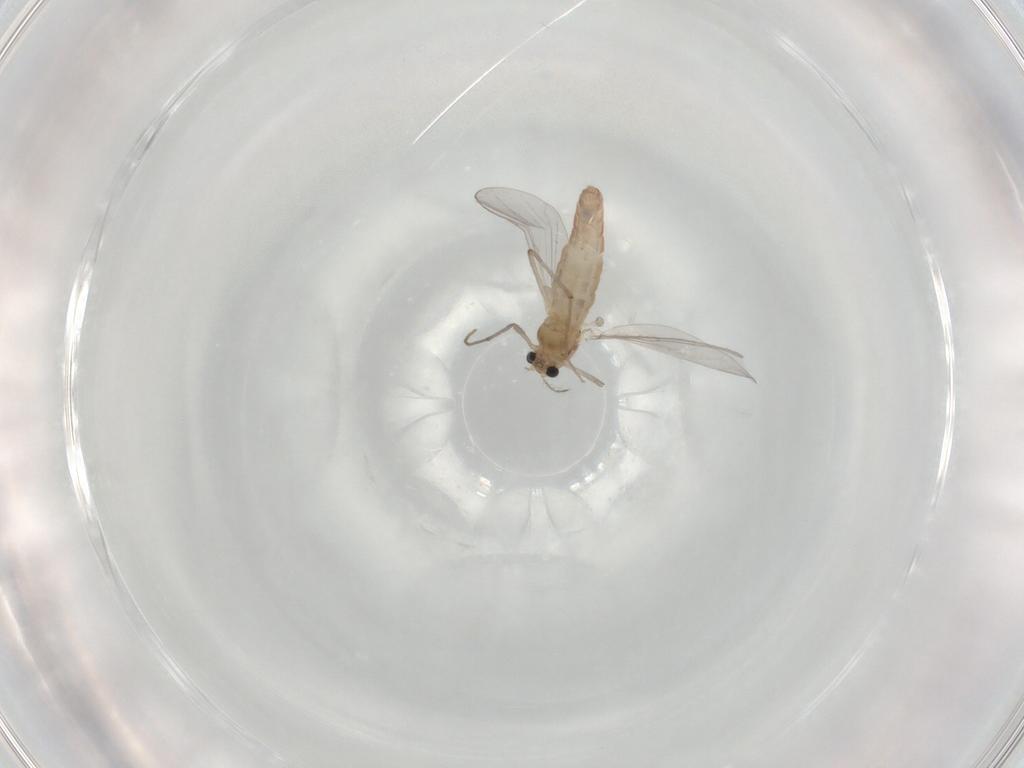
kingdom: Animalia
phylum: Arthropoda
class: Insecta
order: Diptera
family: Chironomidae
